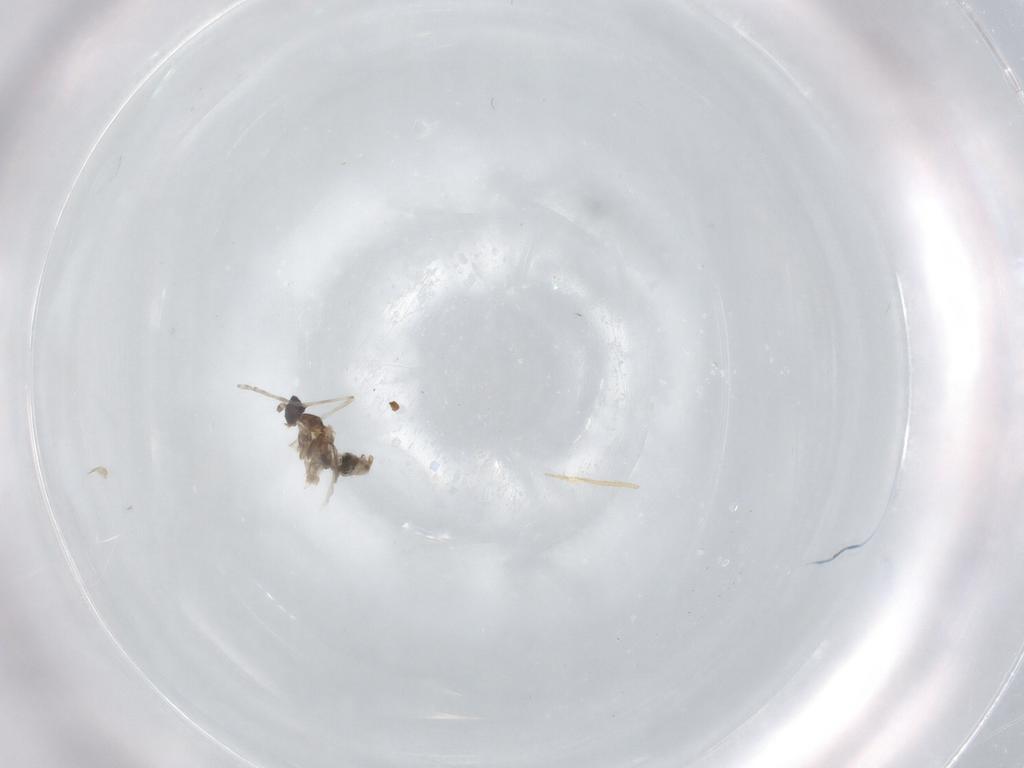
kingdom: Animalia
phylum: Arthropoda
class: Insecta
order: Diptera
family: Cecidomyiidae
